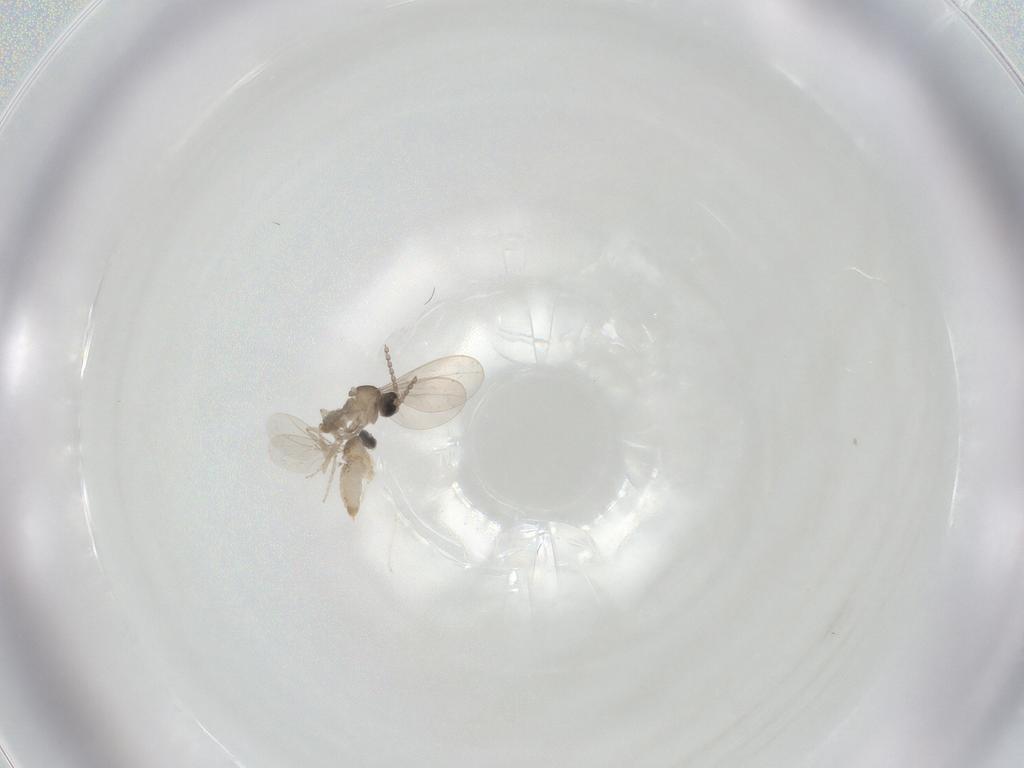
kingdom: Animalia
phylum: Arthropoda
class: Insecta
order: Diptera
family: Cecidomyiidae
